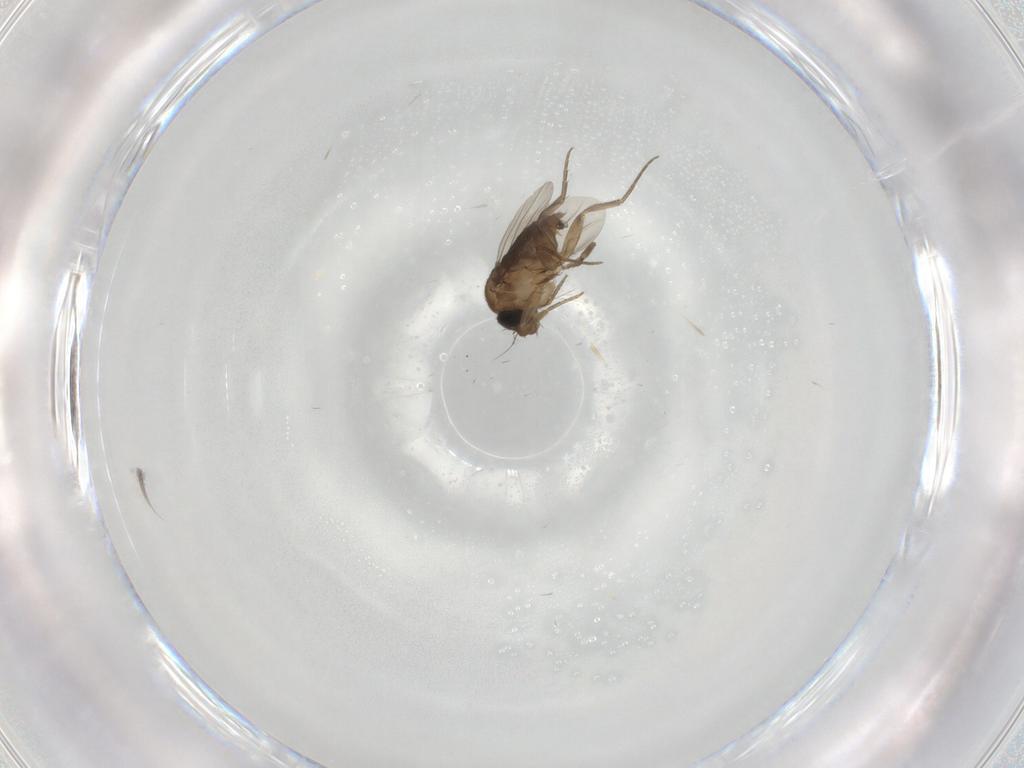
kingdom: Animalia
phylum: Arthropoda
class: Insecta
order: Diptera
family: Phoridae
